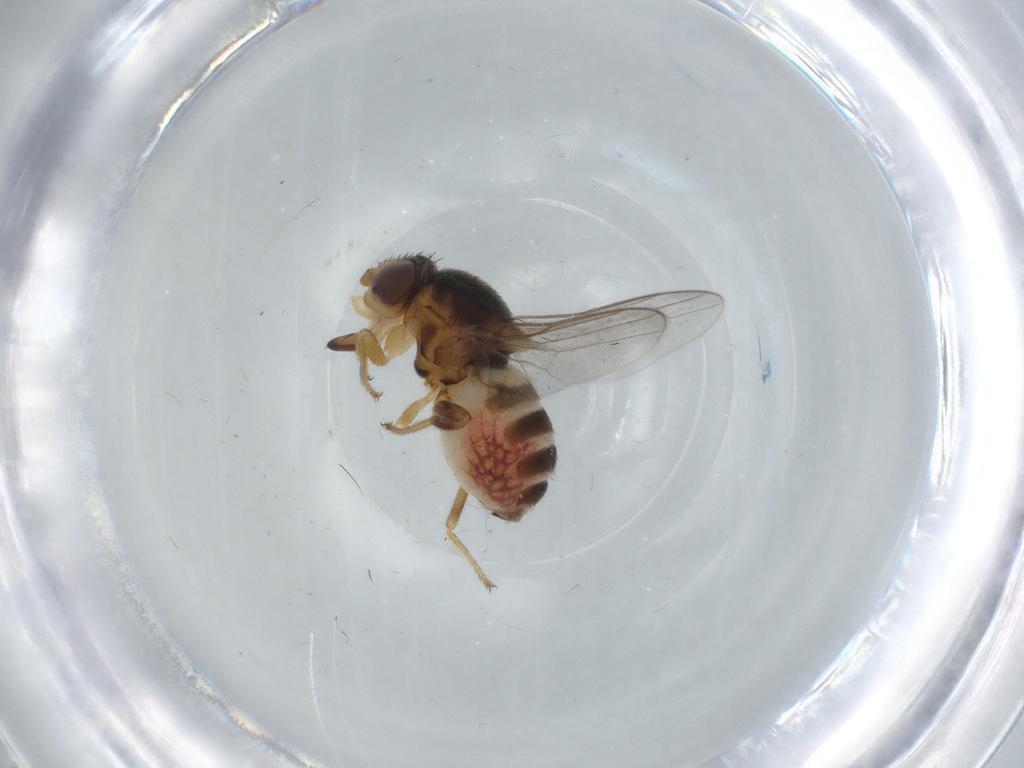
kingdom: Animalia
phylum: Arthropoda
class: Insecta
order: Diptera
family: Chloropidae
